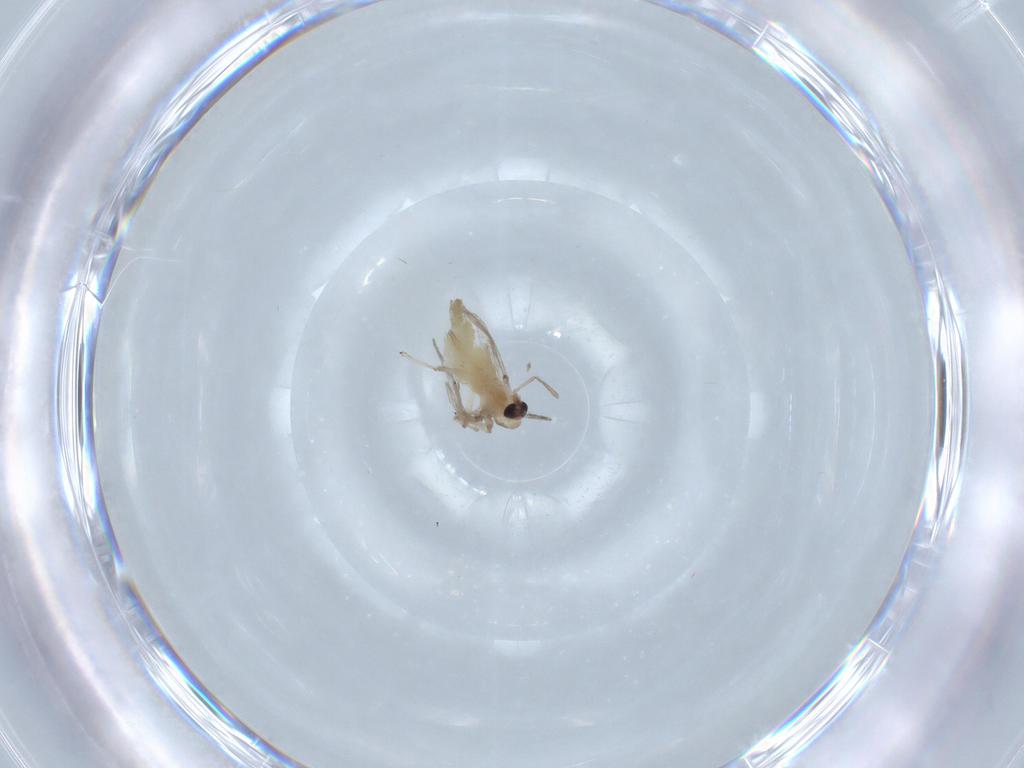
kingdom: Animalia
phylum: Arthropoda
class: Insecta
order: Diptera
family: Chironomidae
